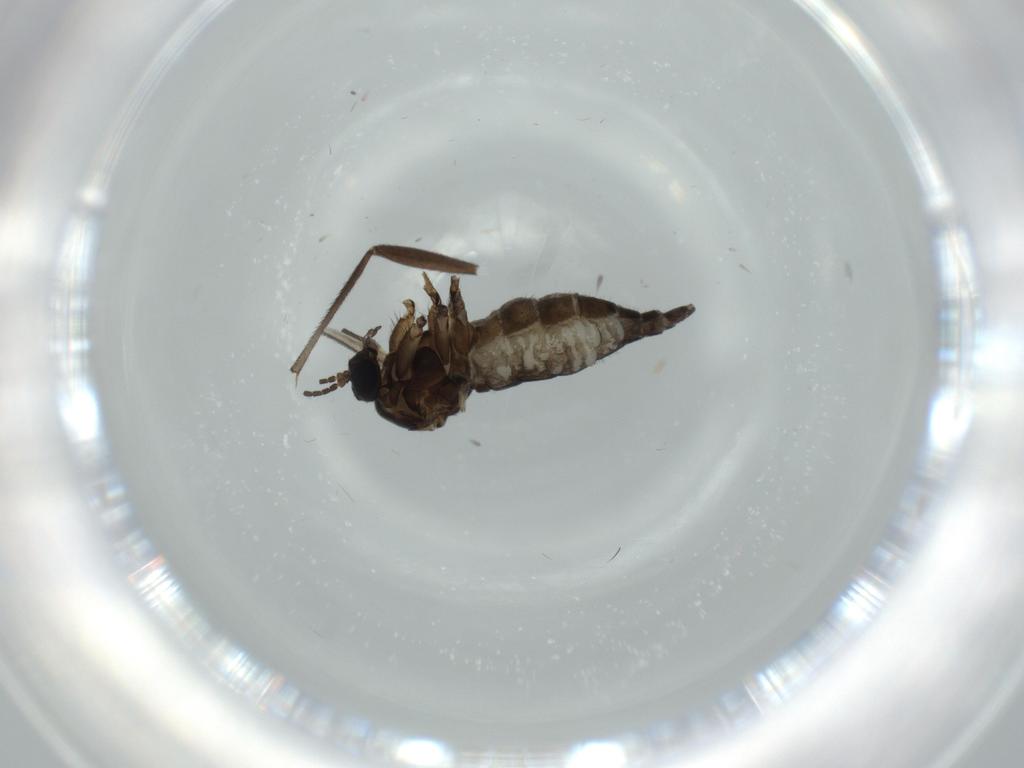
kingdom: Animalia
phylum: Arthropoda
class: Insecta
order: Diptera
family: Sciaridae
